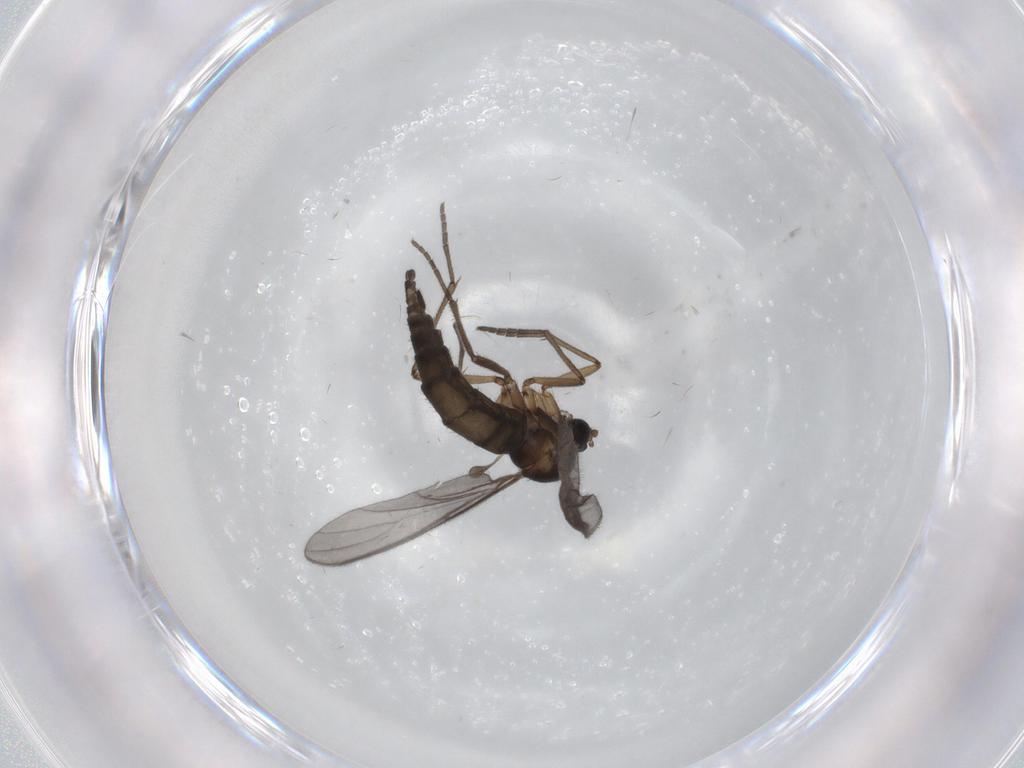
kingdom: Animalia
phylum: Arthropoda
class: Insecta
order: Diptera
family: Sciaridae
